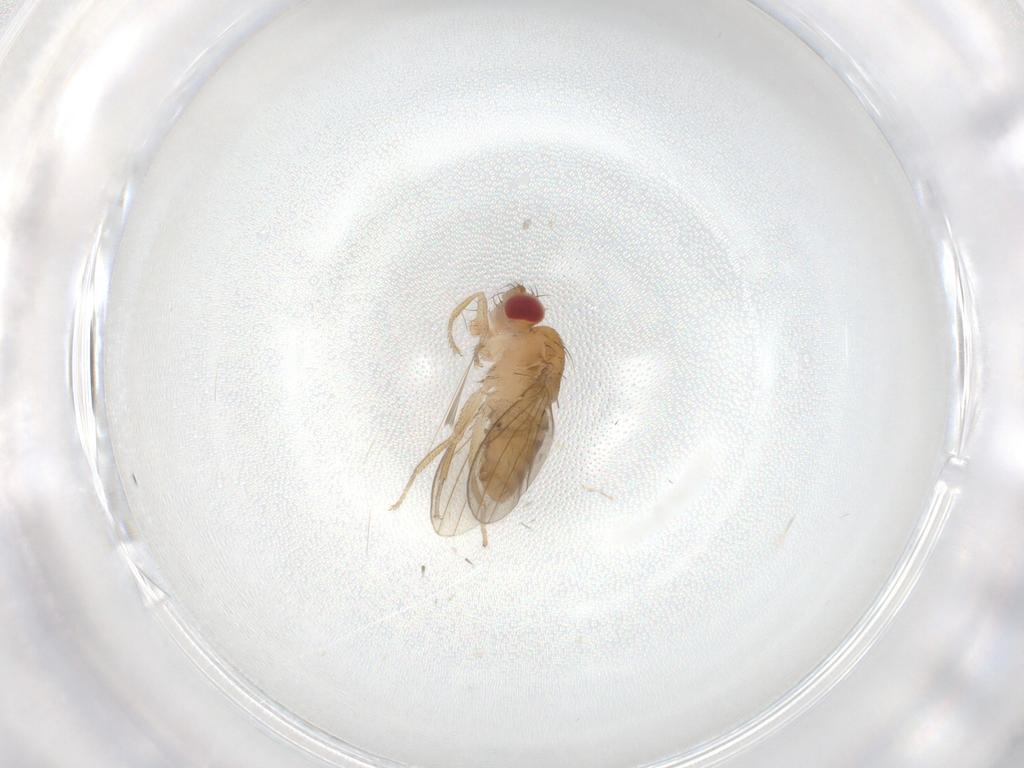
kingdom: Animalia
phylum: Arthropoda
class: Insecta
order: Diptera
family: Drosophilidae
